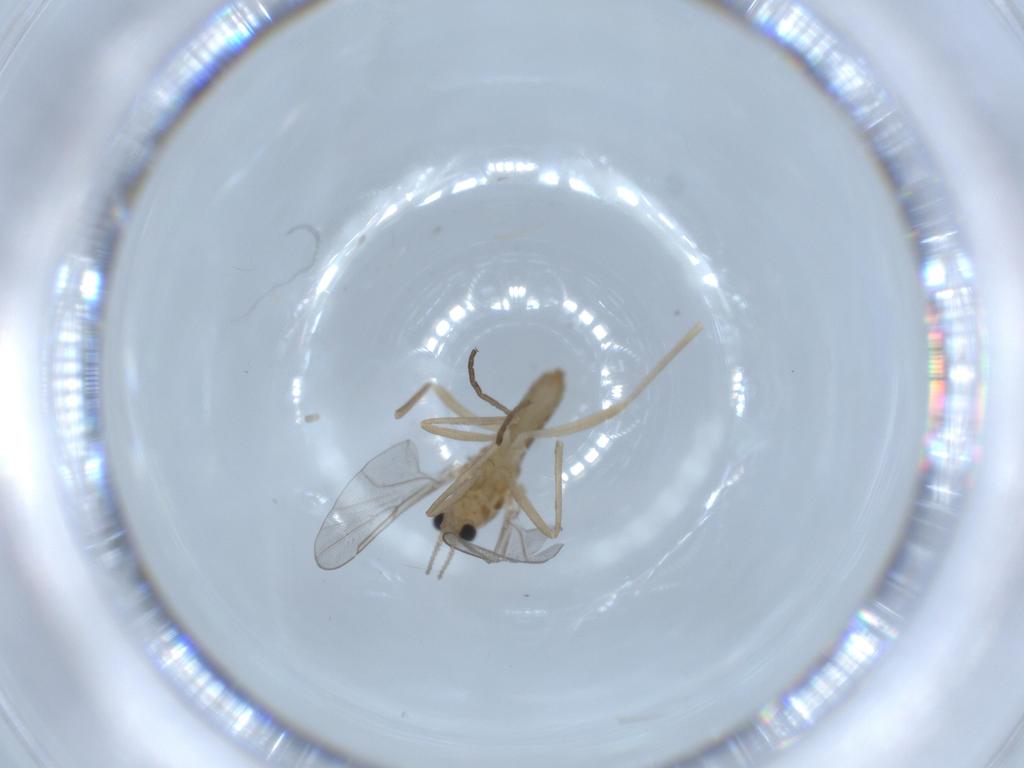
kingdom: Animalia
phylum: Arthropoda
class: Insecta
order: Diptera
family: Cecidomyiidae
